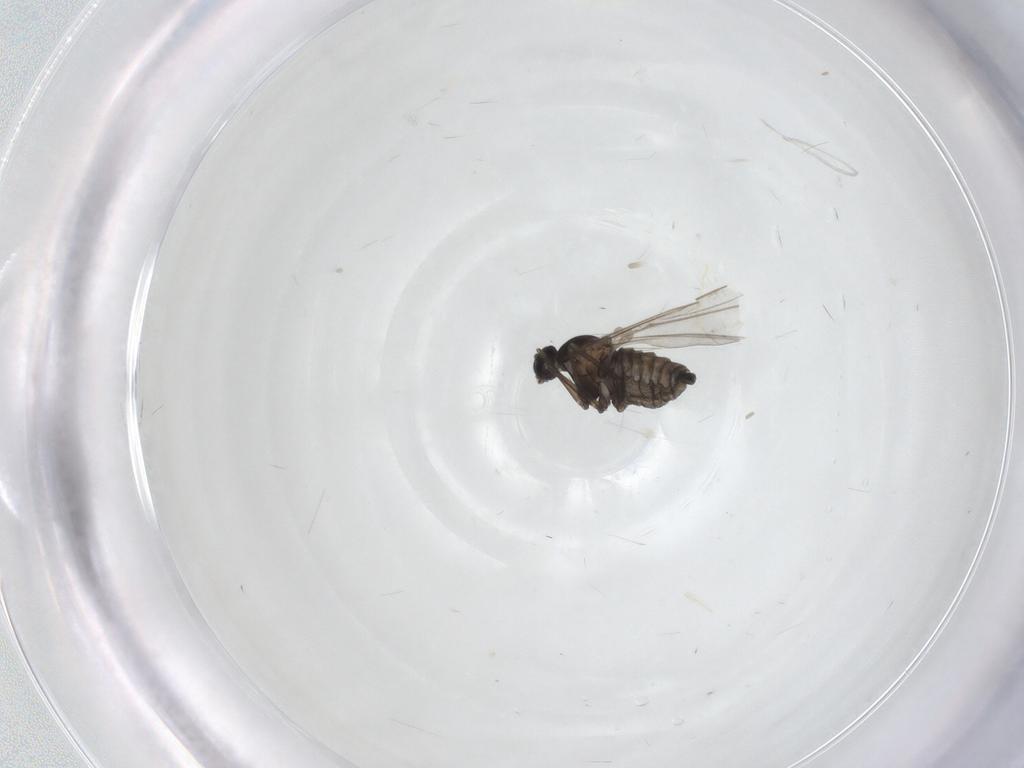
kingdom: Animalia
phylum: Arthropoda
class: Insecta
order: Diptera
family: Cecidomyiidae
